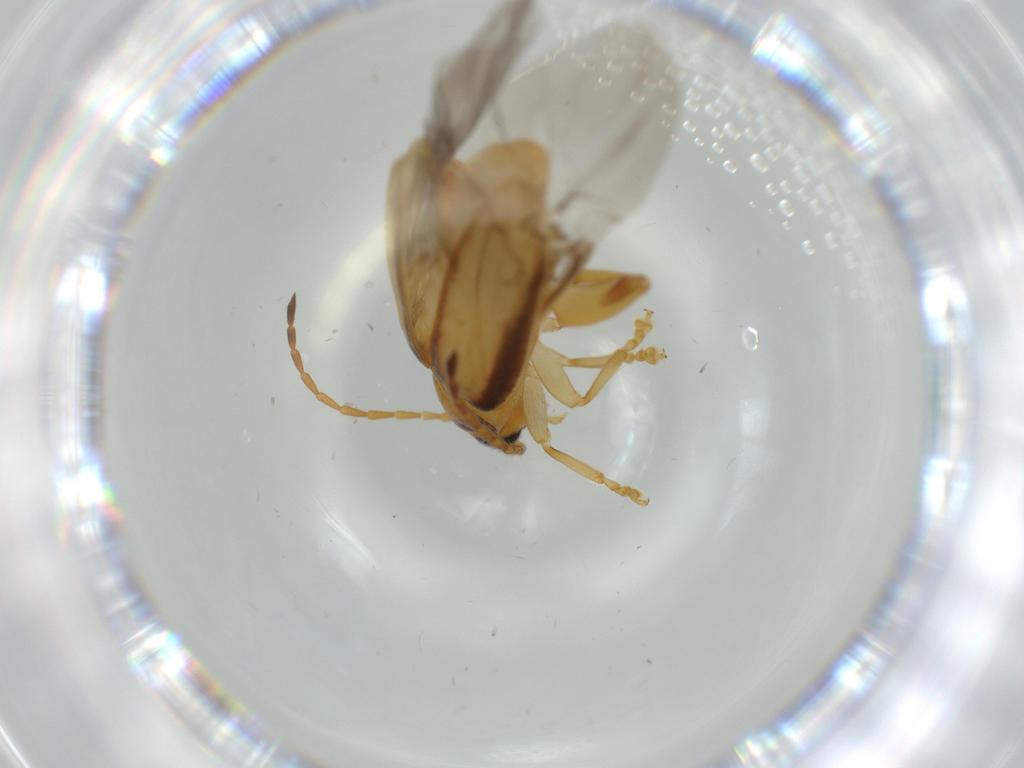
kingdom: Animalia
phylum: Arthropoda
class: Insecta
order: Coleoptera
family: Chrysomelidae
